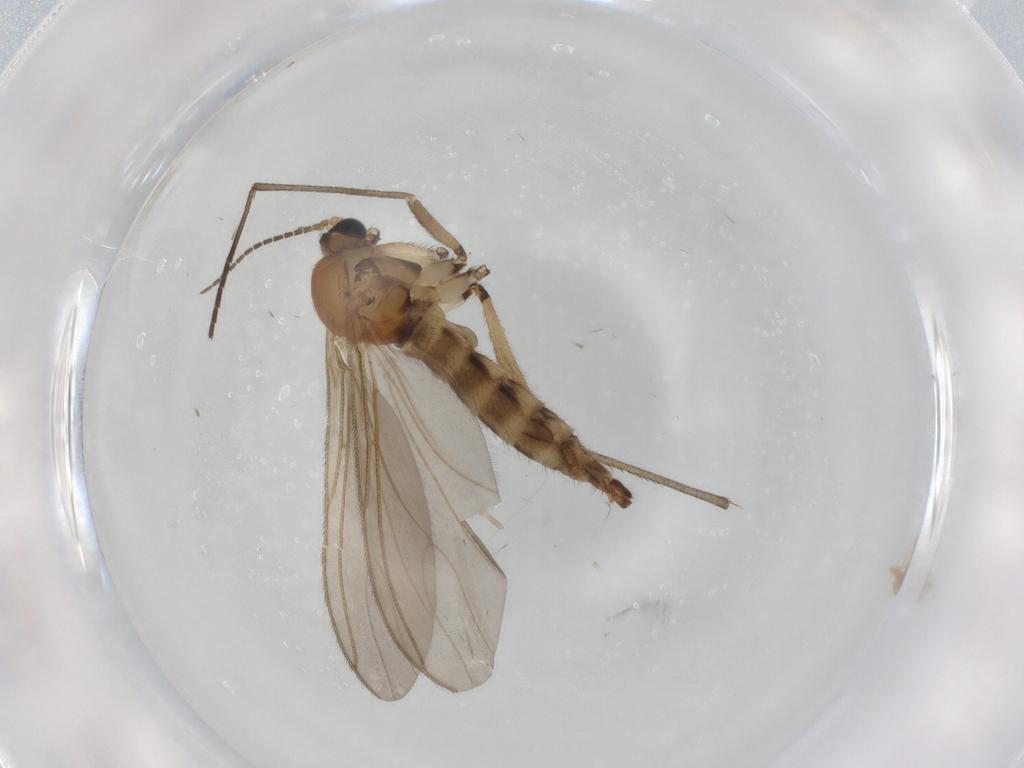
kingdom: Animalia
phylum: Arthropoda
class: Insecta
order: Diptera
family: Sciaridae
